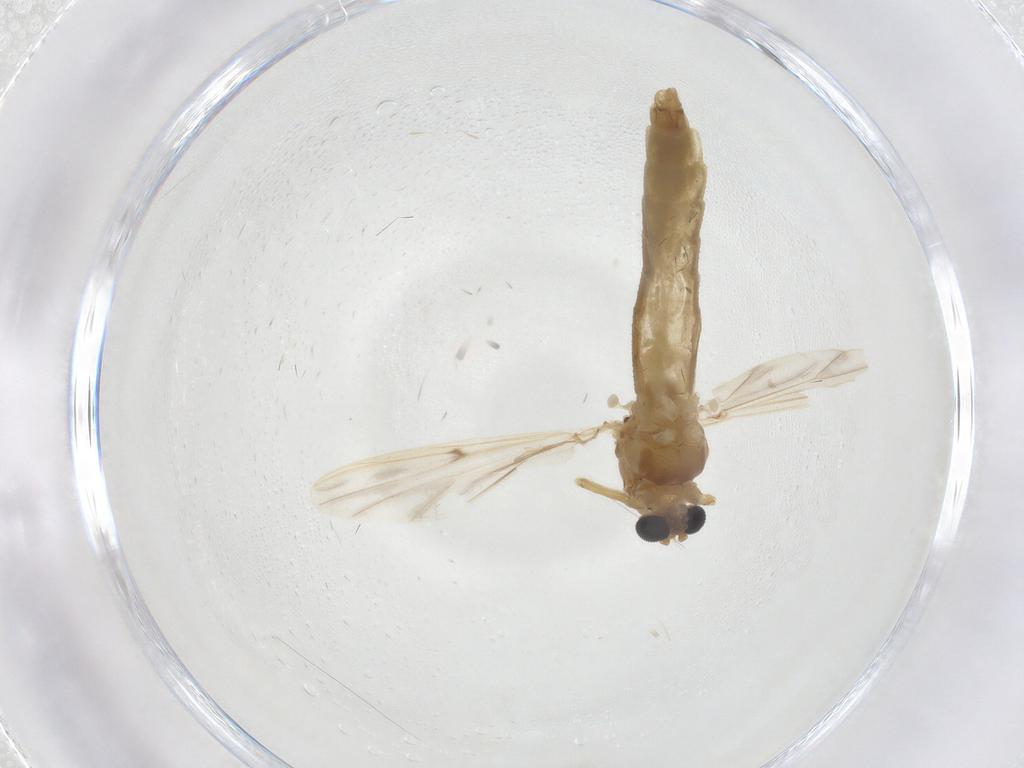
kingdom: Animalia
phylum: Arthropoda
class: Insecta
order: Diptera
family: Chironomidae
